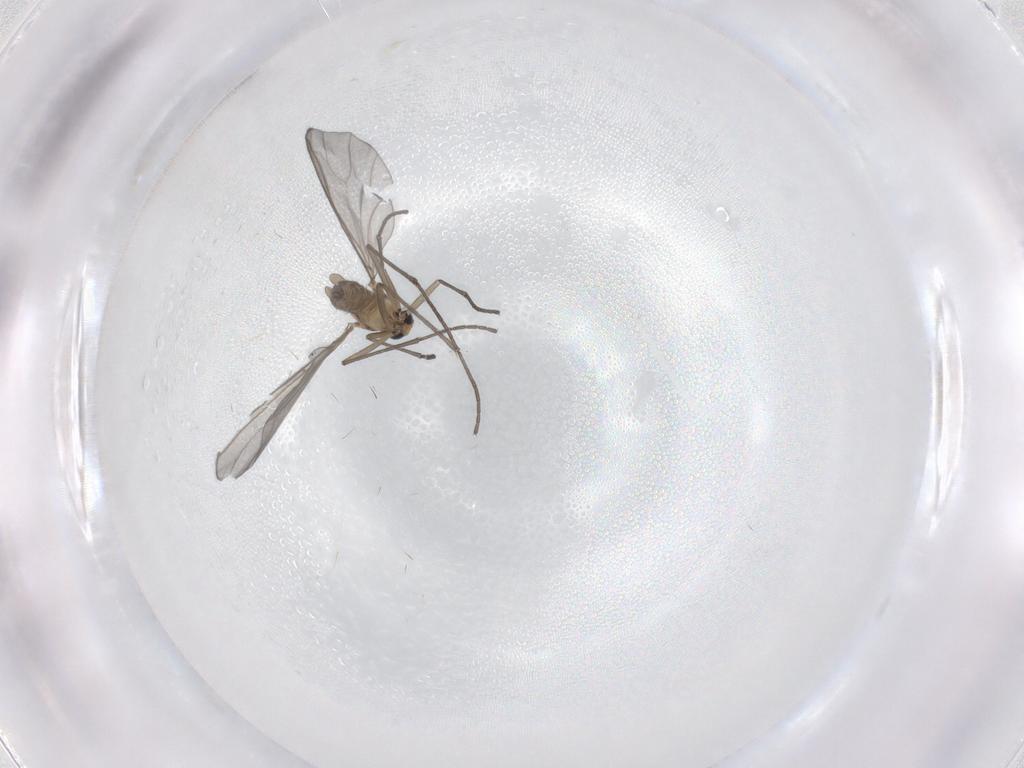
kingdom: Animalia
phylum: Arthropoda
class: Insecta
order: Diptera
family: Sciaridae
